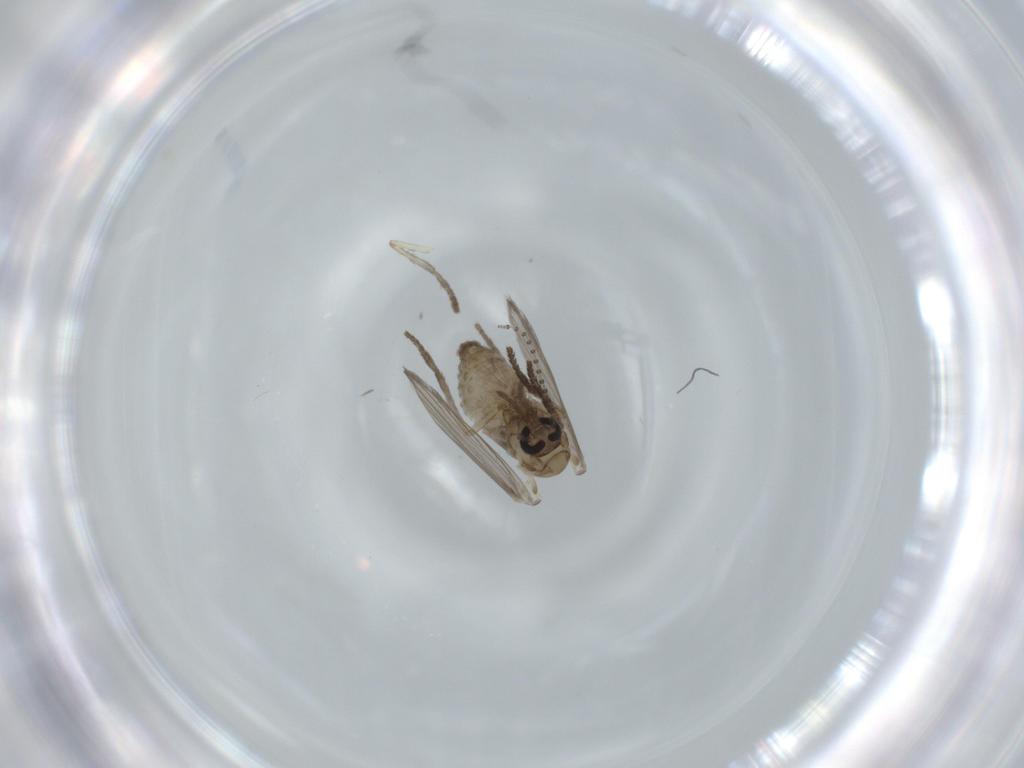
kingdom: Animalia
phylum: Arthropoda
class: Insecta
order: Diptera
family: Psychodidae
